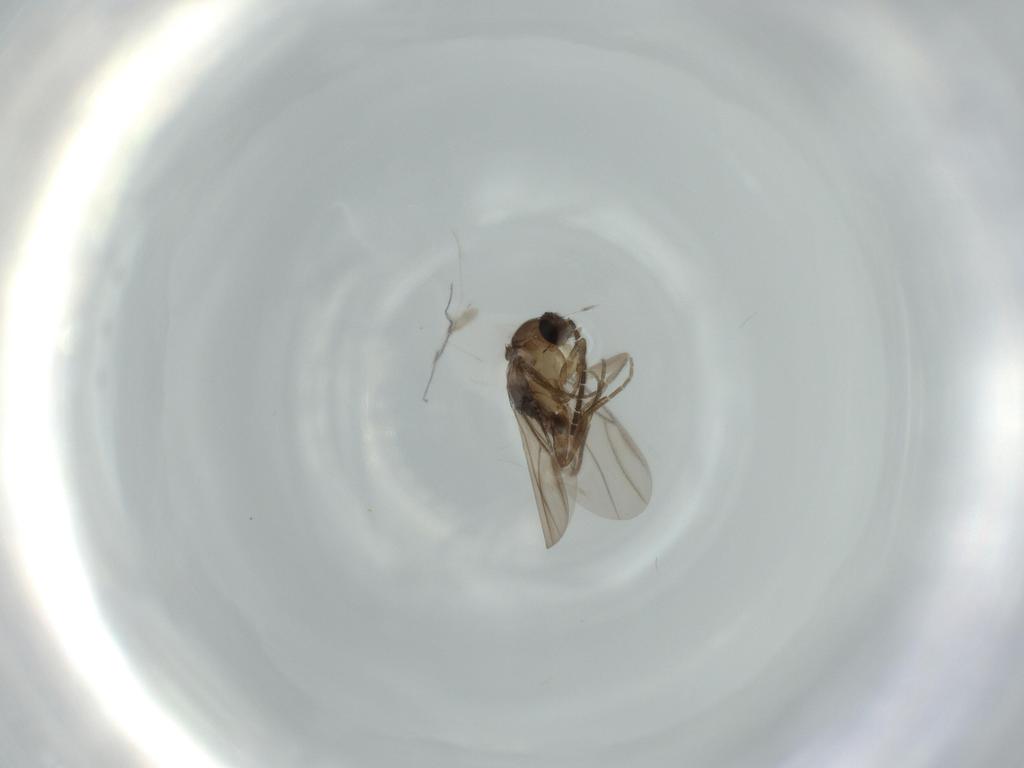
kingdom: Animalia
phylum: Arthropoda
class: Insecta
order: Diptera
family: Phoridae
